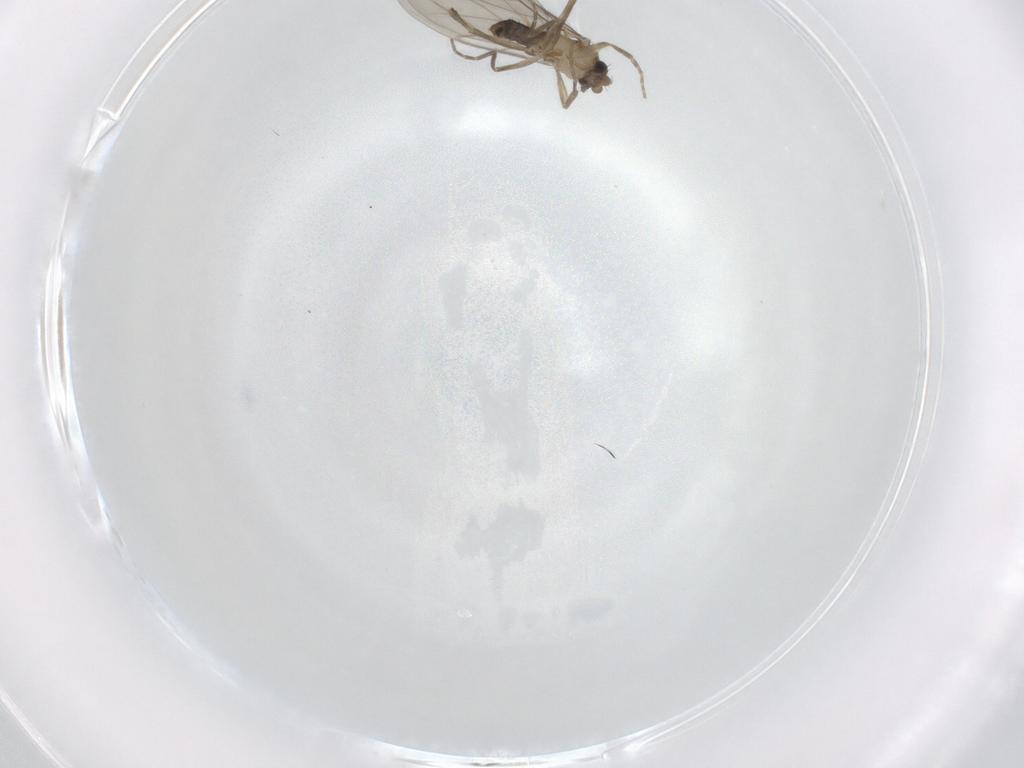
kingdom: Animalia
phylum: Arthropoda
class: Insecta
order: Diptera
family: Phoridae
